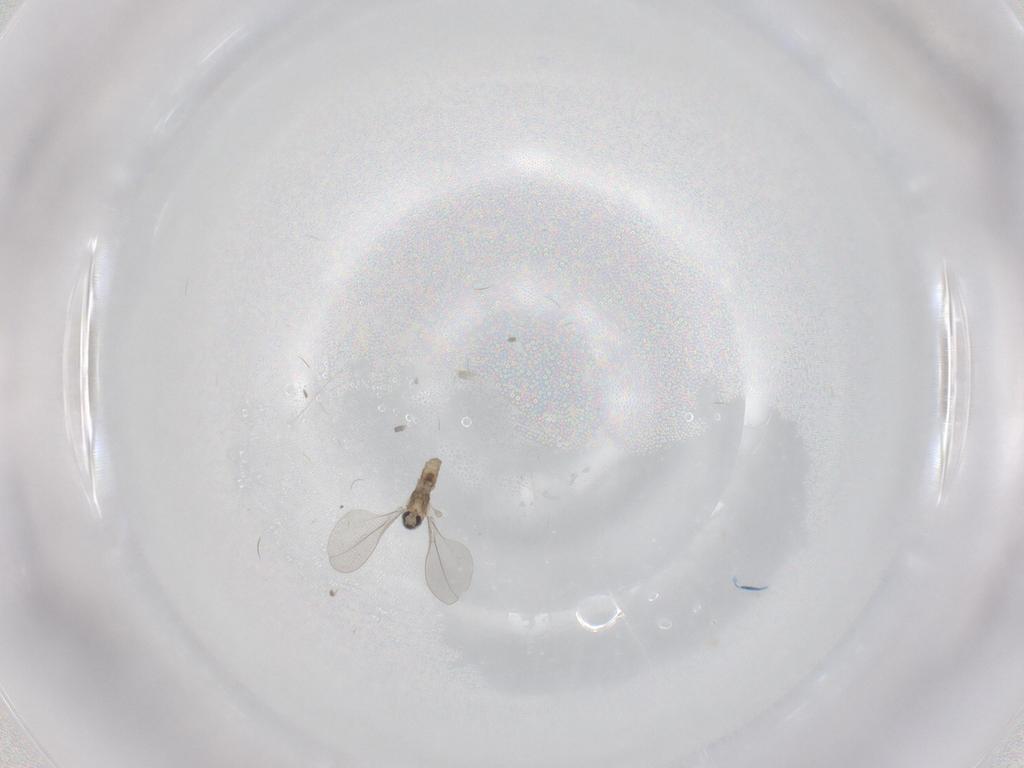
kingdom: Animalia
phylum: Arthropoda
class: Insecta
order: Diptera
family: Cecidomyiidae
